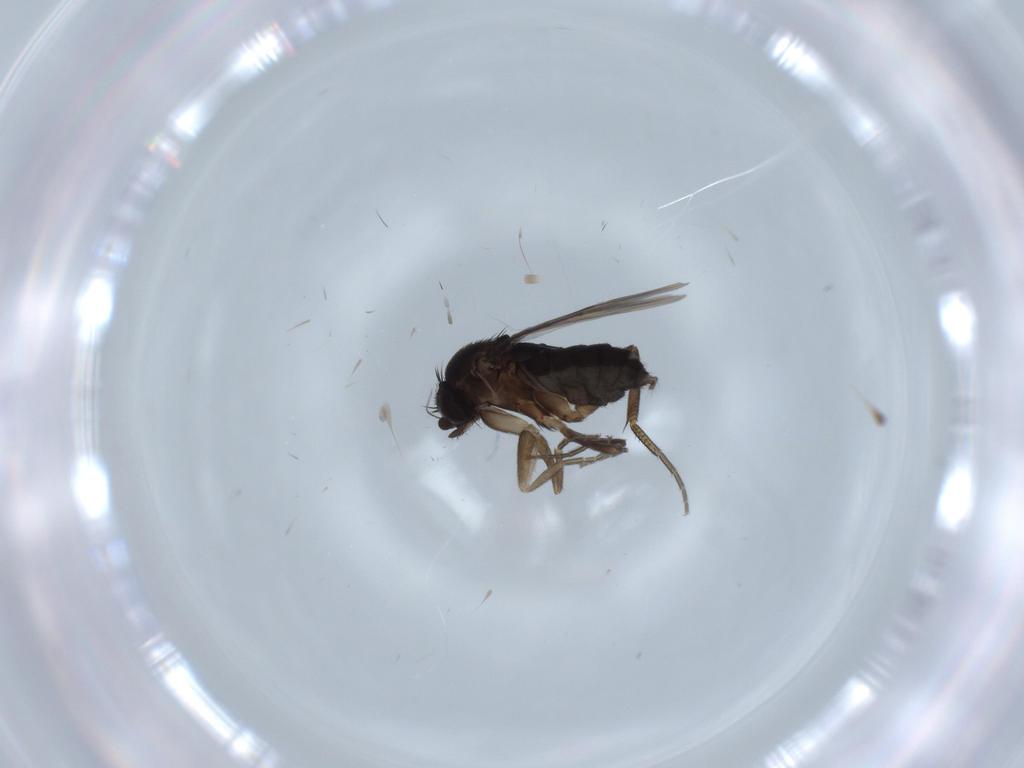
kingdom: Animalia
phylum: Arthropoda
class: Insecta
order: Diptera
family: Phoridae
